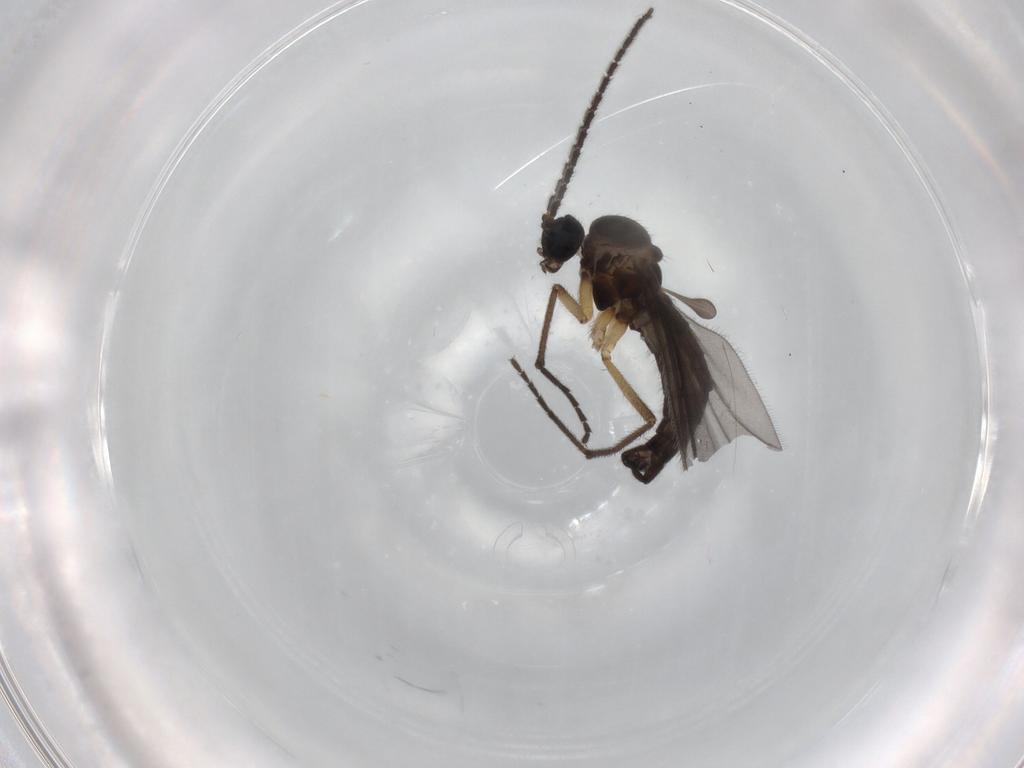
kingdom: Animalia
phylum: Arthropoda
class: Insecta
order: Diptera
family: Sciaridae
